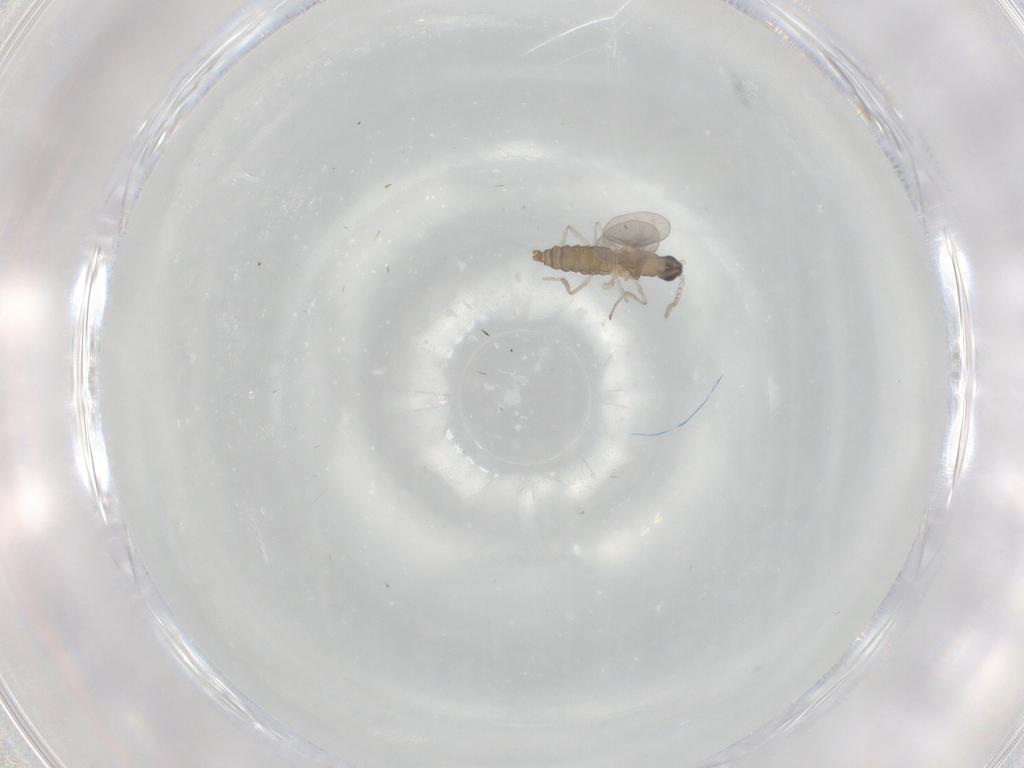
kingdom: Animalia
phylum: Arthropoda
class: Insecta
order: Diptera
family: Cecidomyiidae
